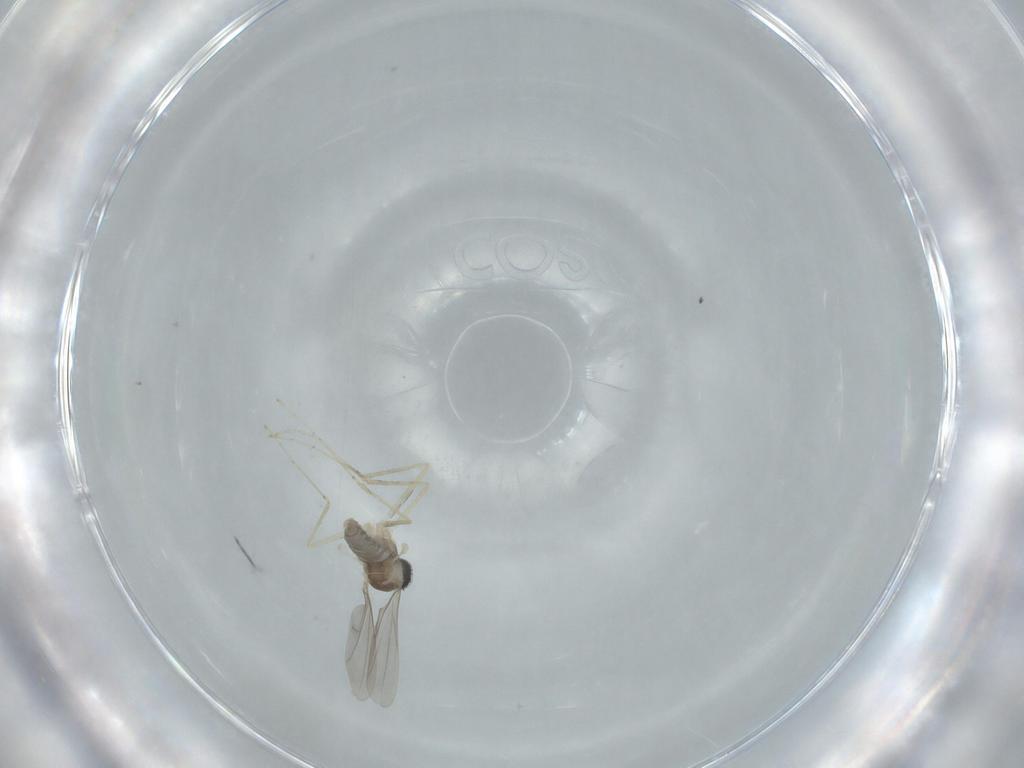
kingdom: Animalia
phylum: Arthropoda
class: Insecta
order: Diptera
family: Cecidomyiidae
